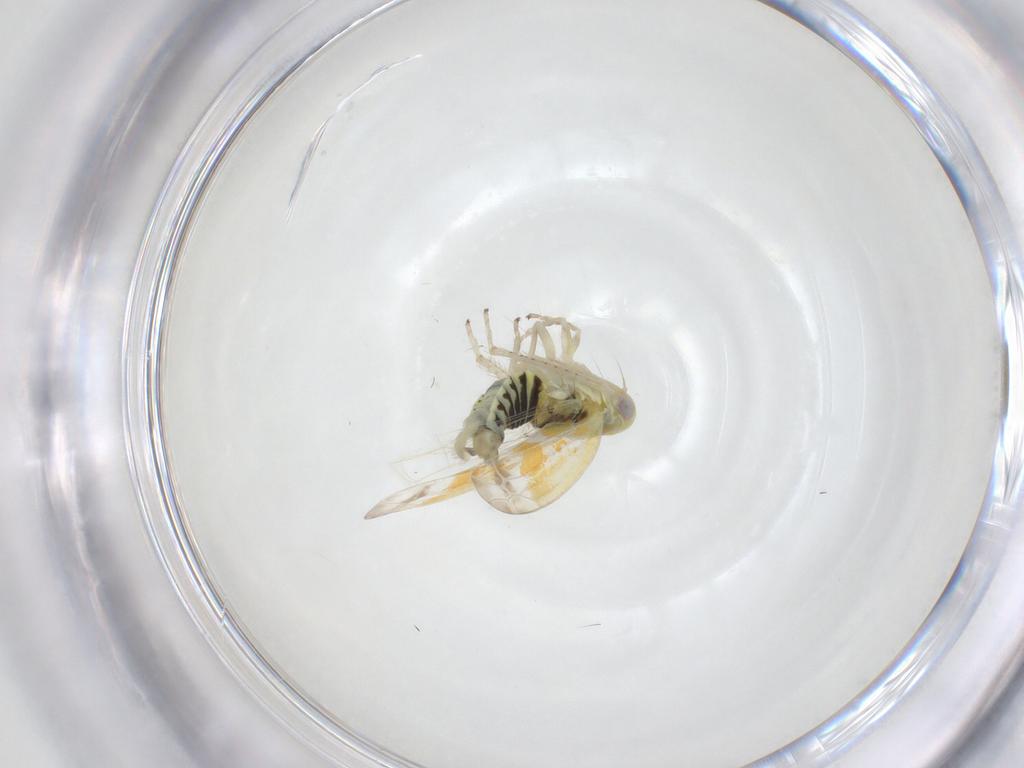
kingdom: Animalia
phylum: Arthropoda
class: Insecta
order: Hemiptera
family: Cicadellidae
